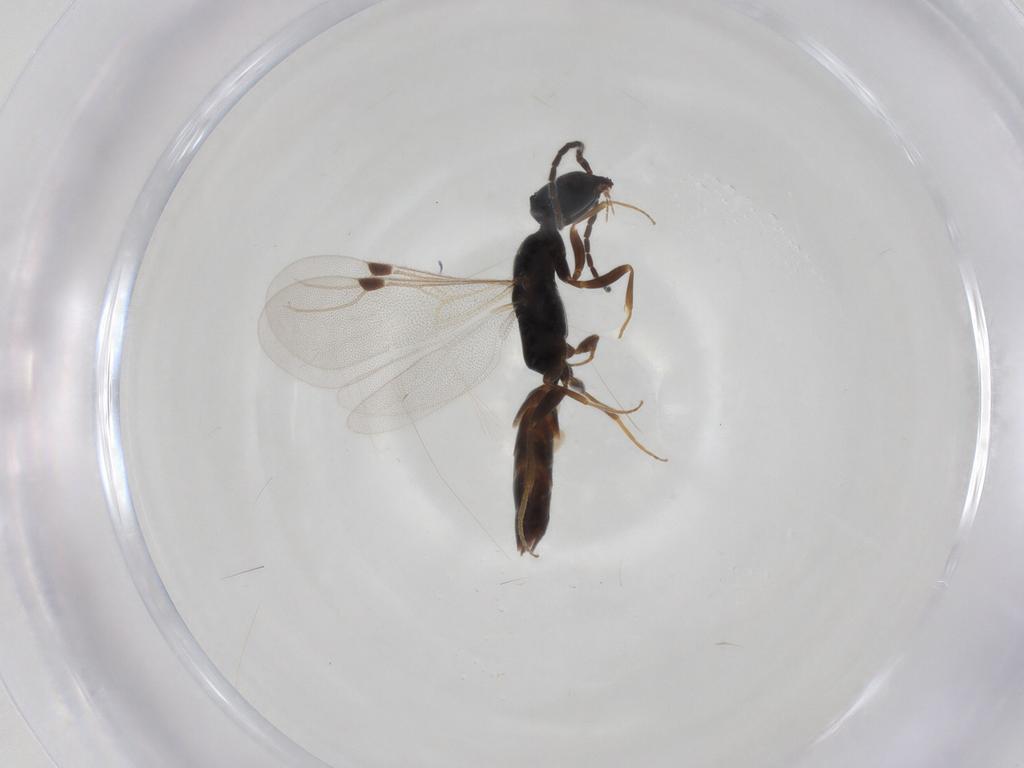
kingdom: Animalia
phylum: Arthropoda
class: Insecta
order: Hymenoptera
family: Bethylidae
